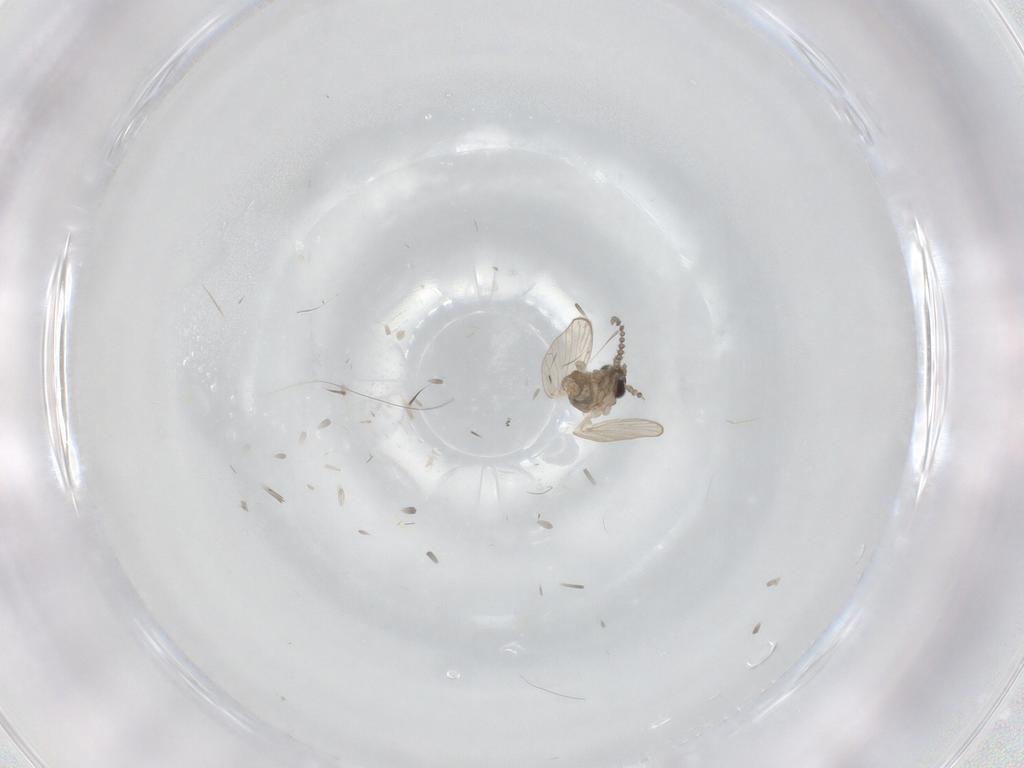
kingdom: Animalia
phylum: Arthropoda
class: Insecta
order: Diptera
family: Psychodidae
